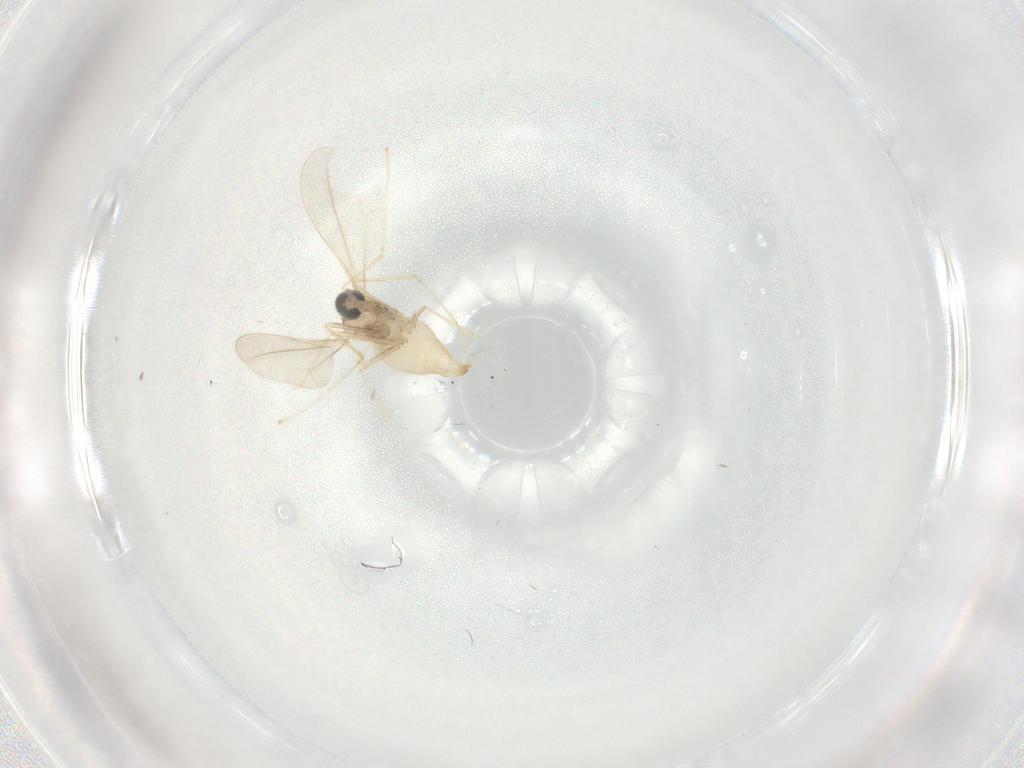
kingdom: Animalia
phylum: Arthropoda
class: Insecta
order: Diptera
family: Cecidomyiidae
